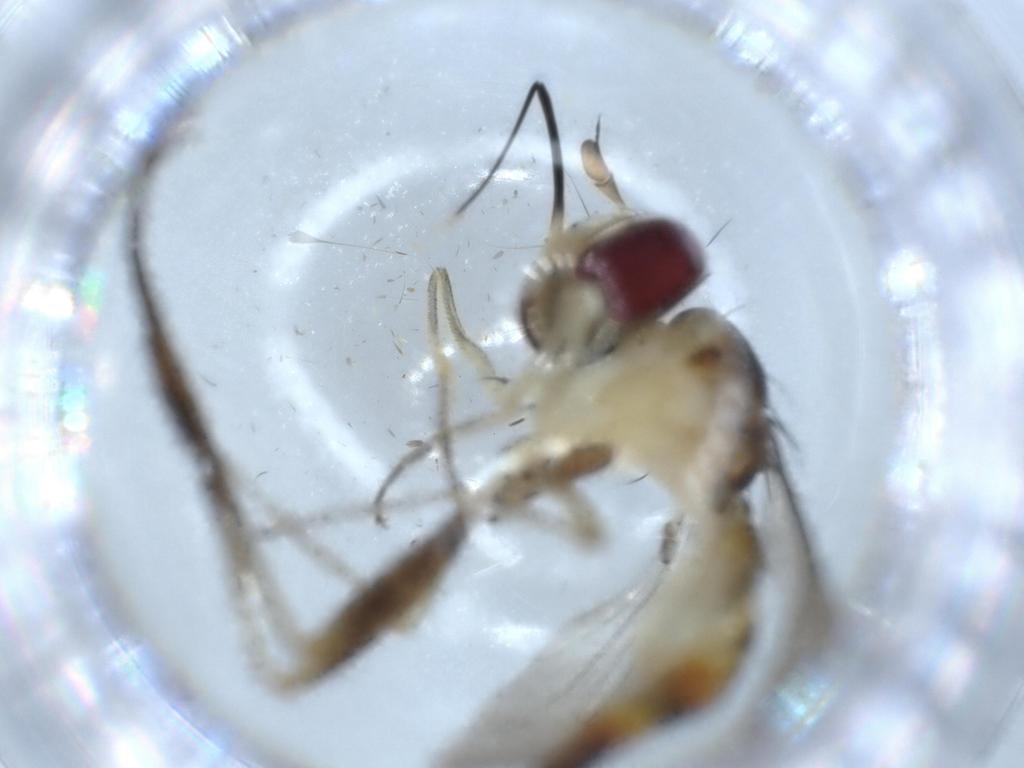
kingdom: Animalia
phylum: Arthropoda
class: Insecta
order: Diptera
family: Conopidae
